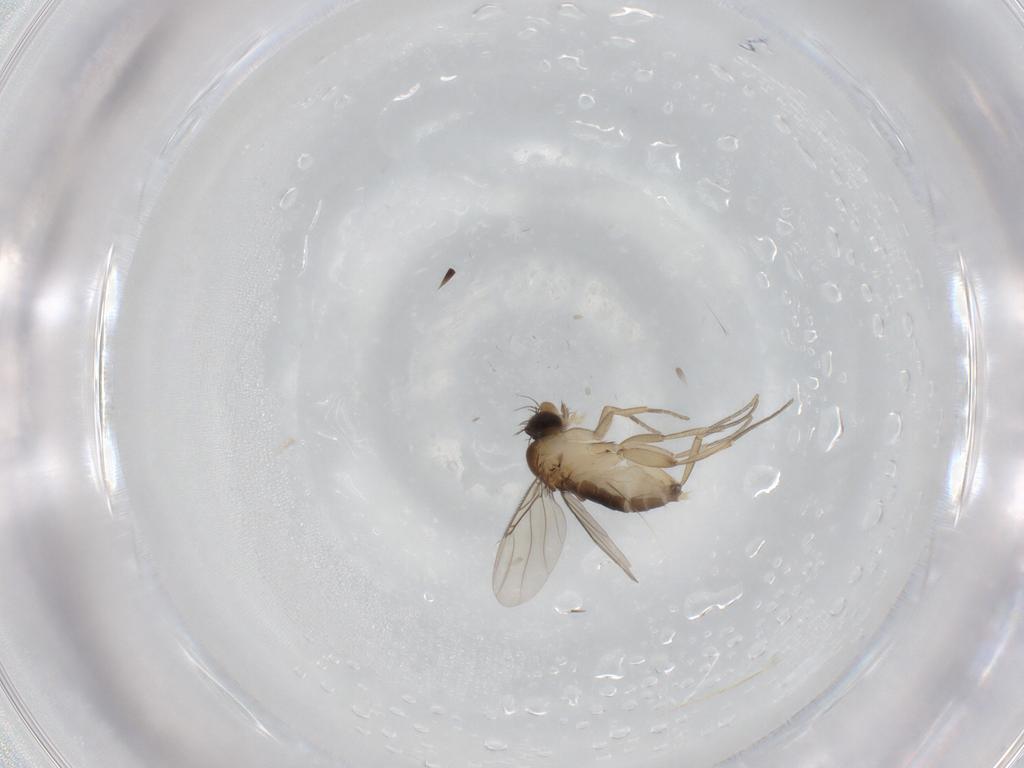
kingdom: Animalia
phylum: Arthropoda
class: Insecta
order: Diptera
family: Phoridae
